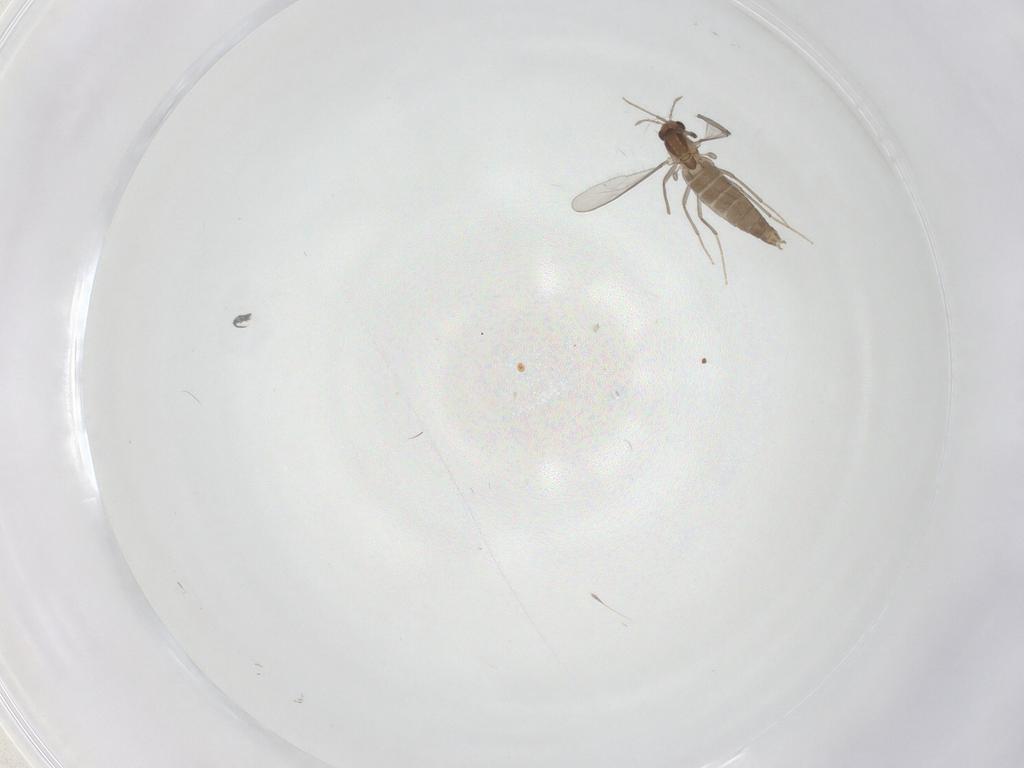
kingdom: Animalia
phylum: Arthropoda
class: Insecta
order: Diptera
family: Chironomidae
